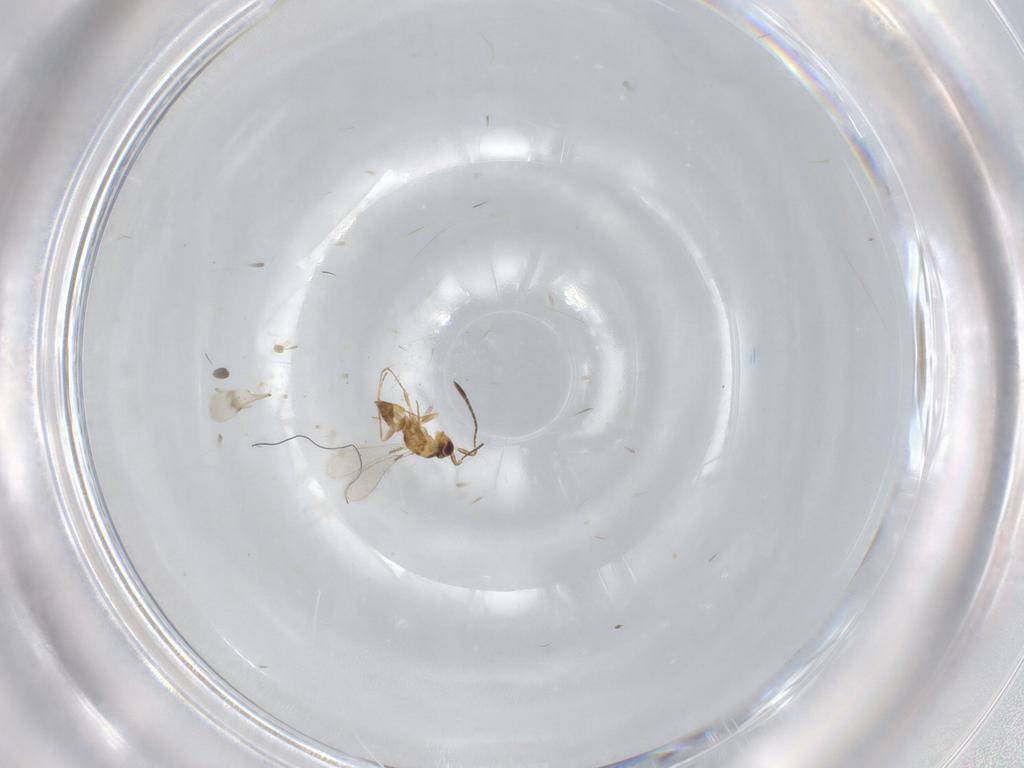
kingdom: Animalia
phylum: Arthropoda
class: Insecta
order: Hymenoptera
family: Mymaridae
